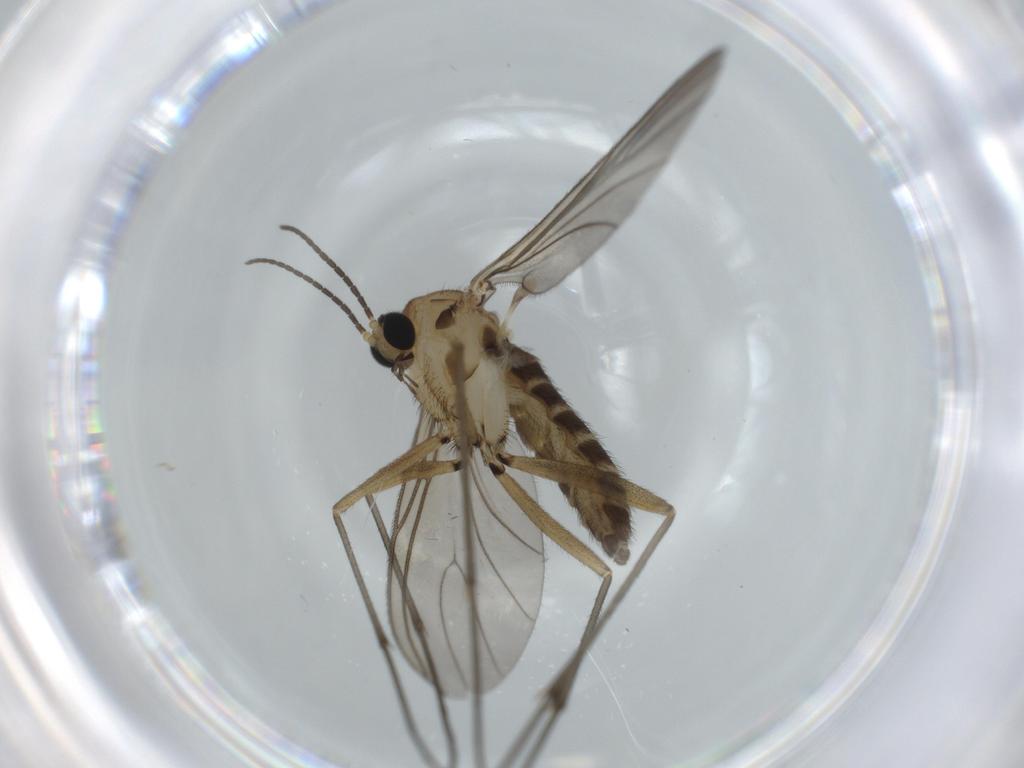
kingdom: Animalia
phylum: Arthropoda
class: Insecta
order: Diptera
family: Sciaridae
